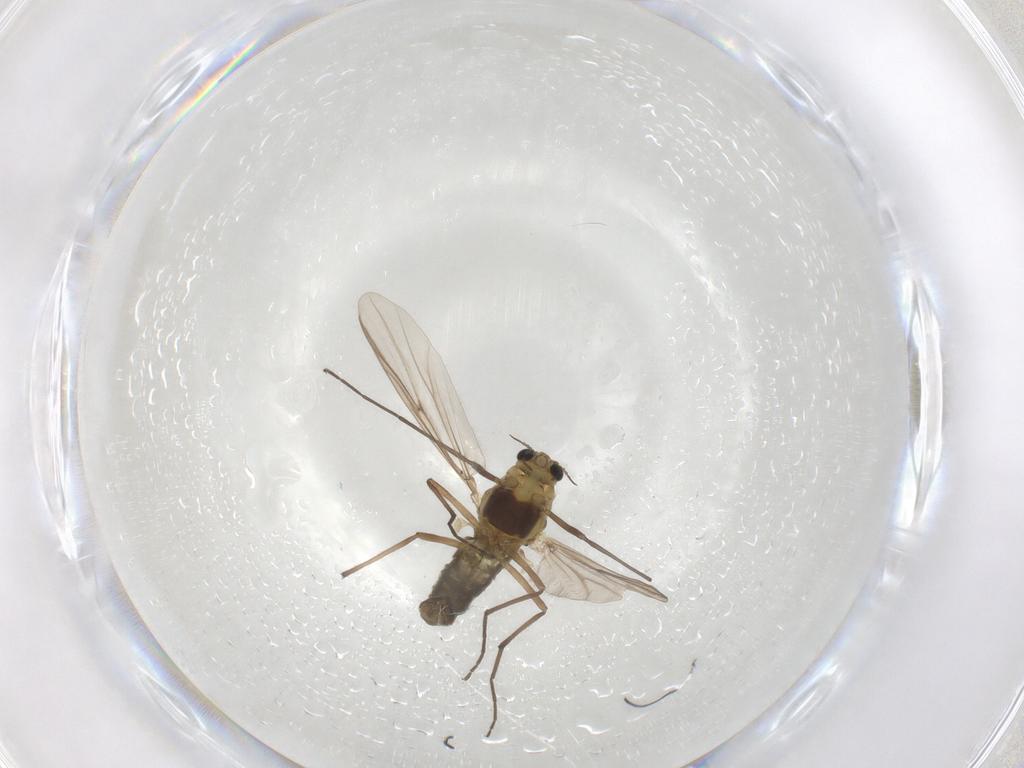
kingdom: Animalia
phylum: Arthropoda
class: Insecta
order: Diptera
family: Chironomidae
